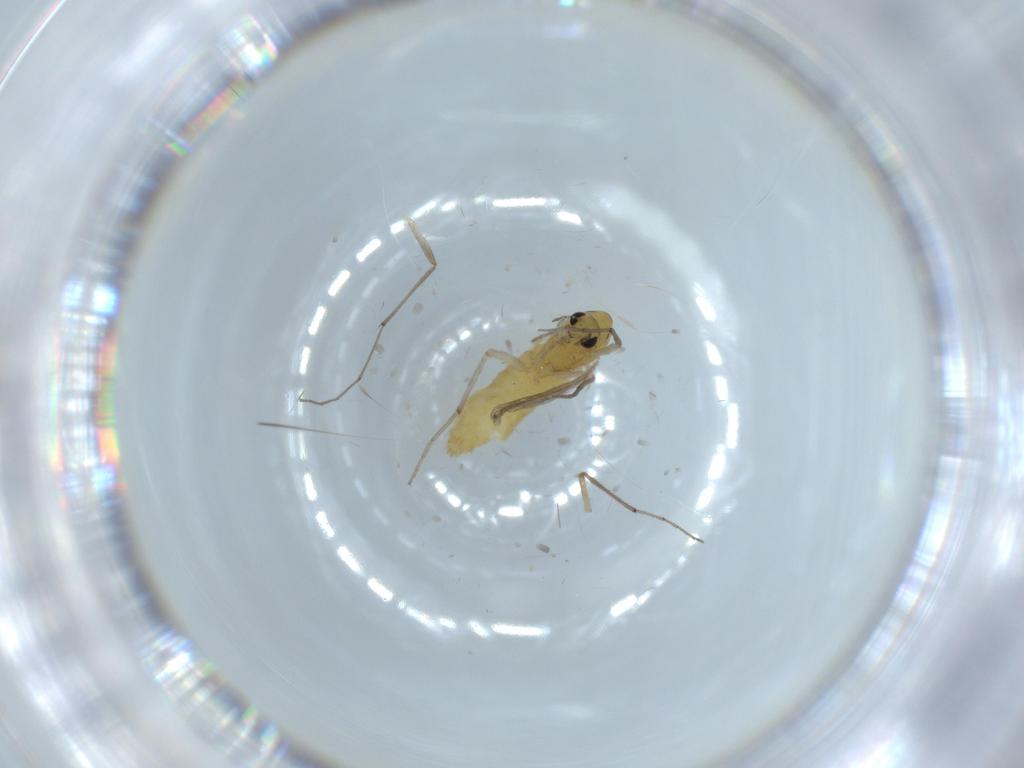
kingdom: Animalia
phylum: Arthropoda
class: Insecta
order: Diptera
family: Chironomidae
